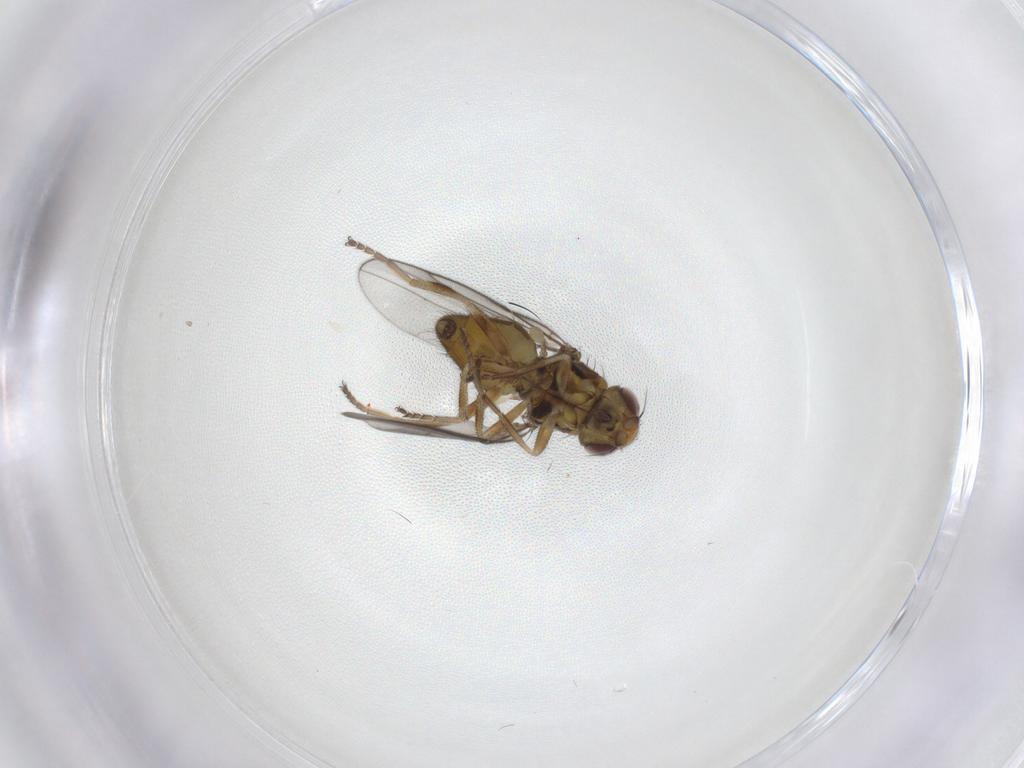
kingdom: Animalia
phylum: Arthropoda
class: Insecta
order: Diptera
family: Chloropidae
